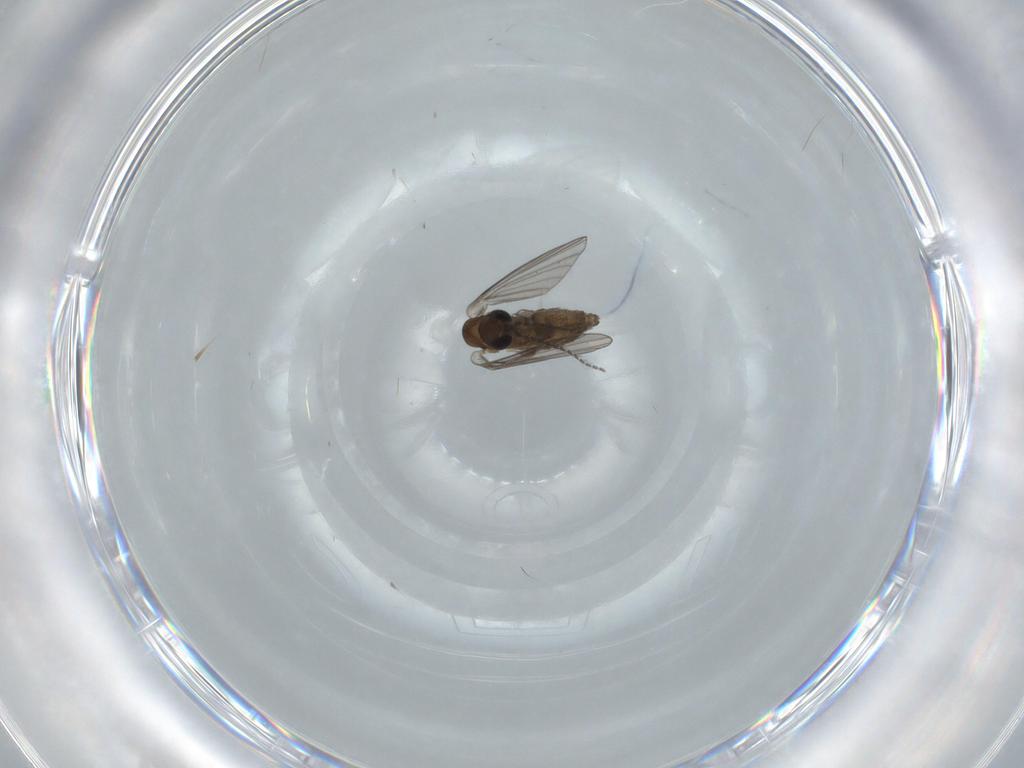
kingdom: Animalia
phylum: Arthropoda
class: Insecta
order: Diptera
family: Psychodidae
